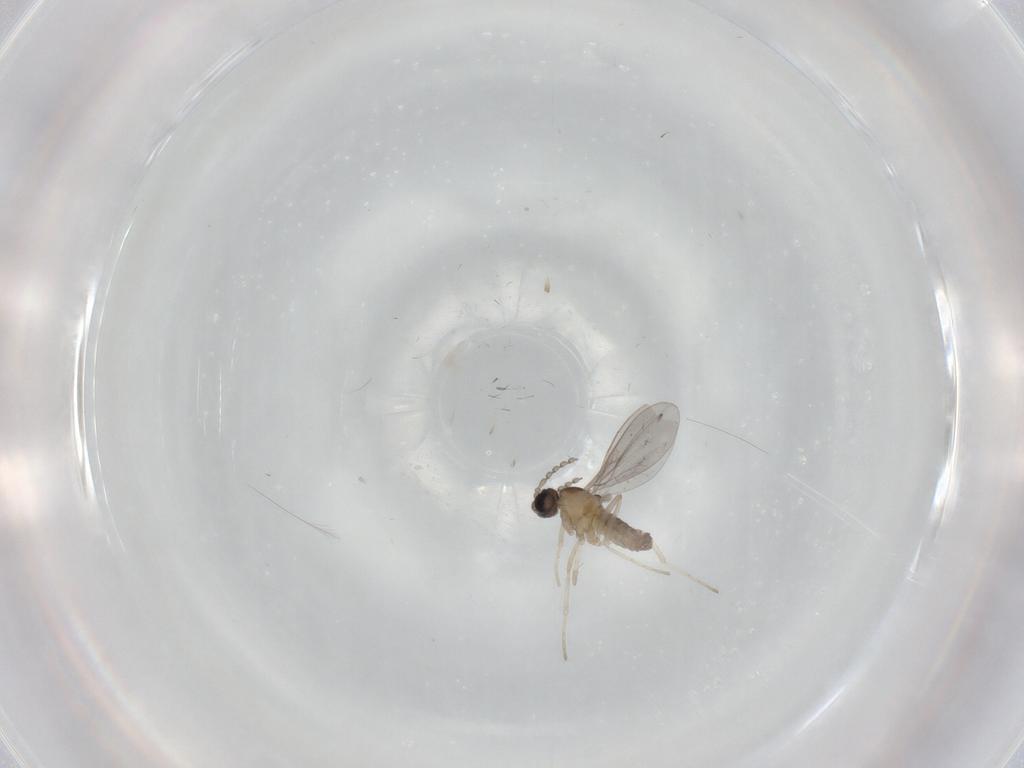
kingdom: Animalia
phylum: Arthropoda
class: Insecta
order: Diptera
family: Cecidomyiidae
